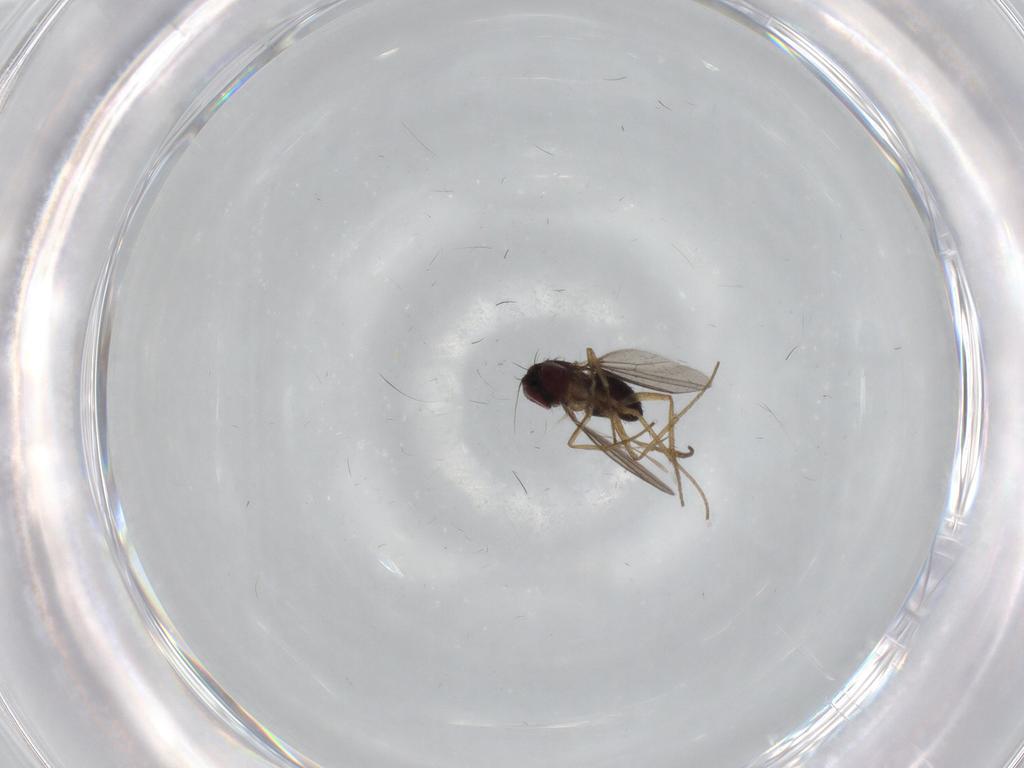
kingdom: Animalia
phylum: Arthropoda
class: Insecta
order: Diptera
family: Dolichopodidae
